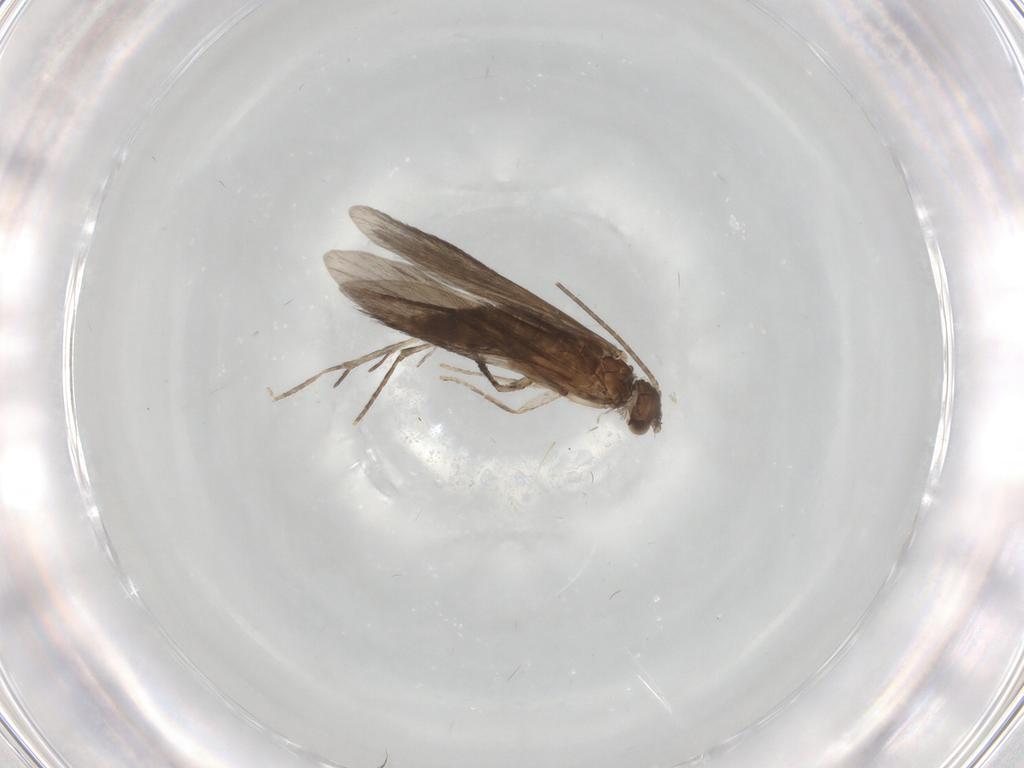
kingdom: Animalia
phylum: Arthropoda
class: Insecta
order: Trichoptera
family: Xiphocentronidae
